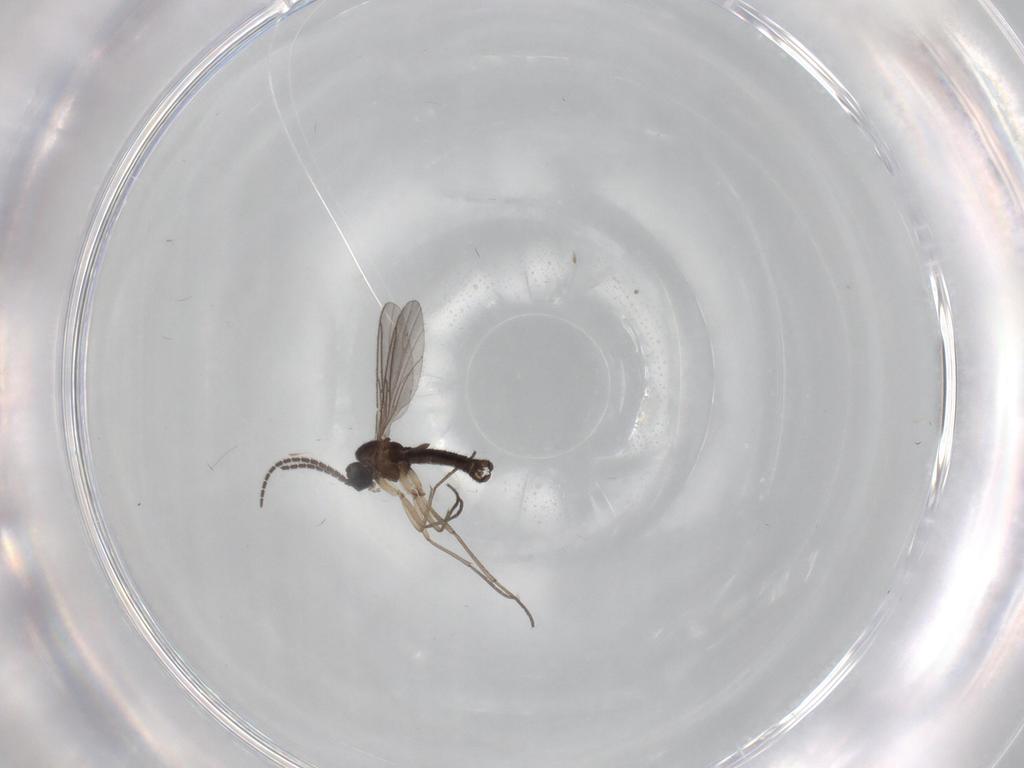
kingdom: Animalia
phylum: Arthropoda
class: Insecta
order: Diptera
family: Sciaridae
